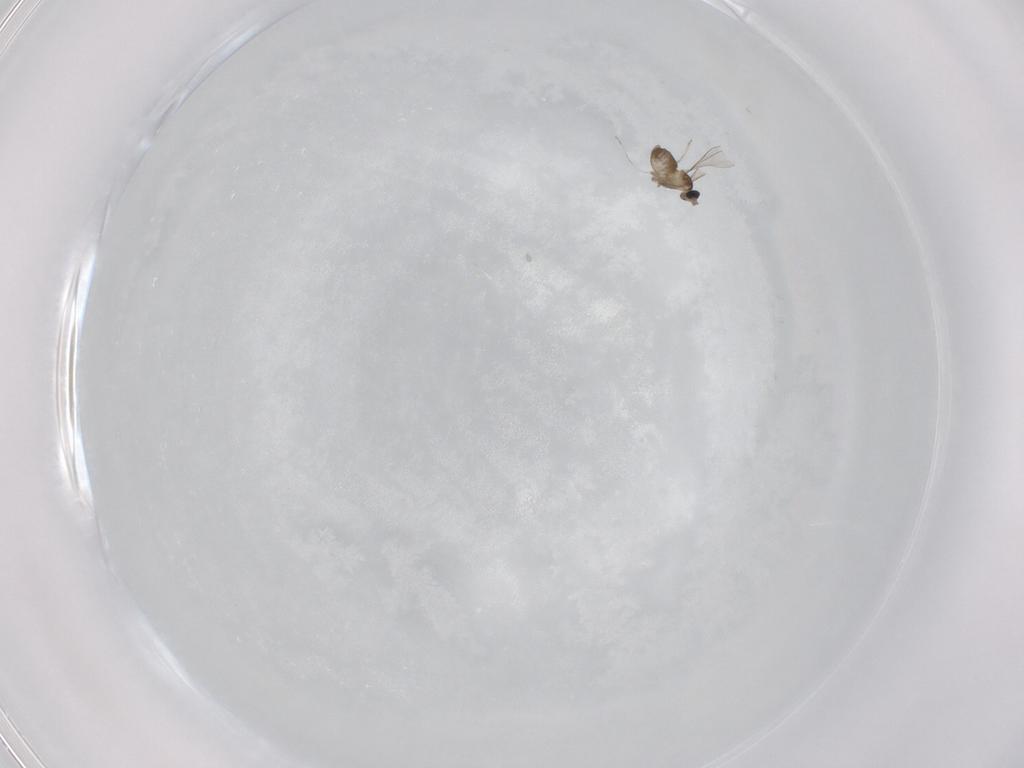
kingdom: Animalia
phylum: Arthropoda
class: Insecta
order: Diptera
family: Cecidomyiidae
